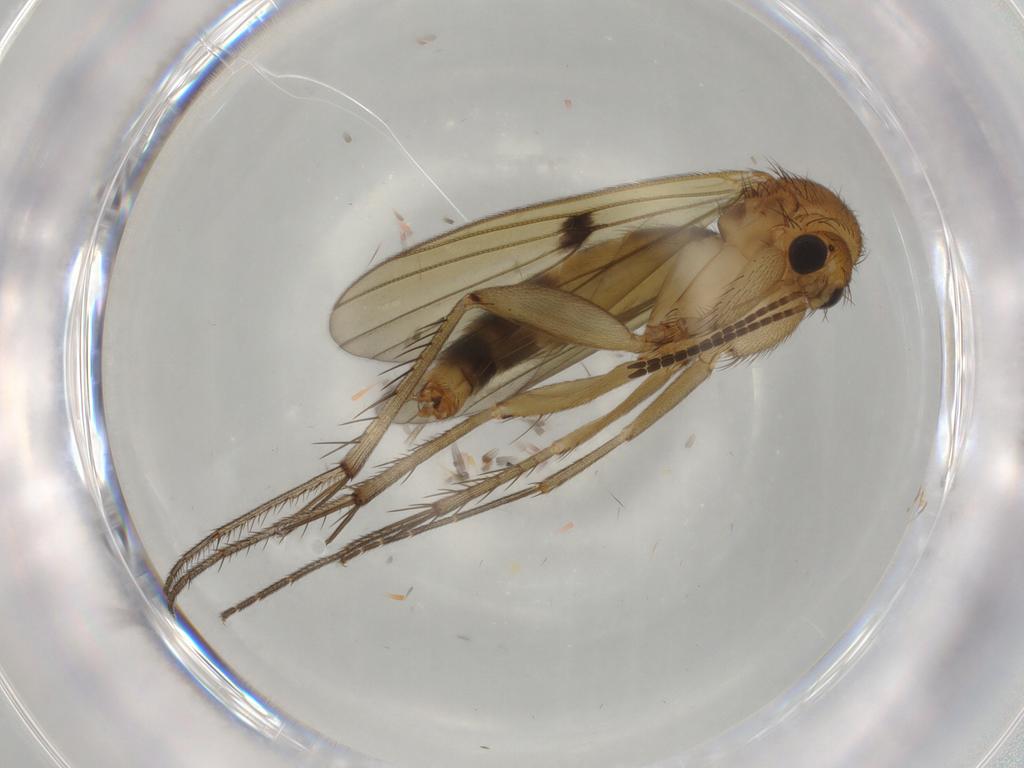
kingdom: Animalia
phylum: Arthropoda
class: Insecta
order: Diptera
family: Mycetophilidae
